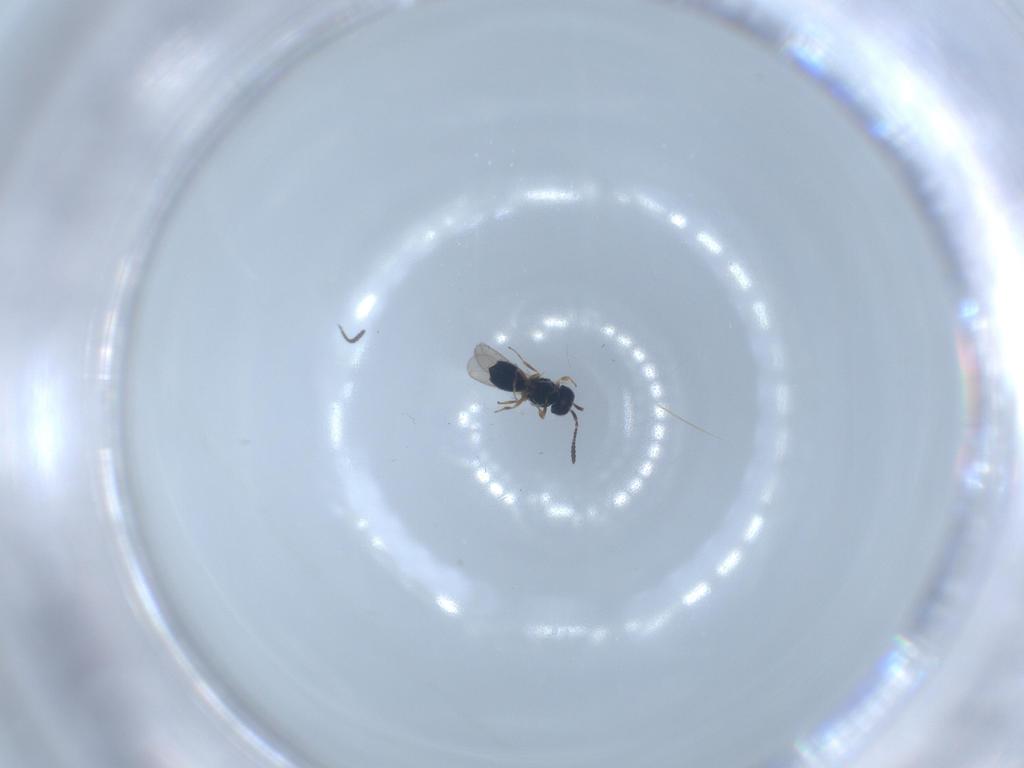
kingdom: Animalia
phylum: Arthropoda
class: Insecta
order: Hymenoptera
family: Scelionidae
